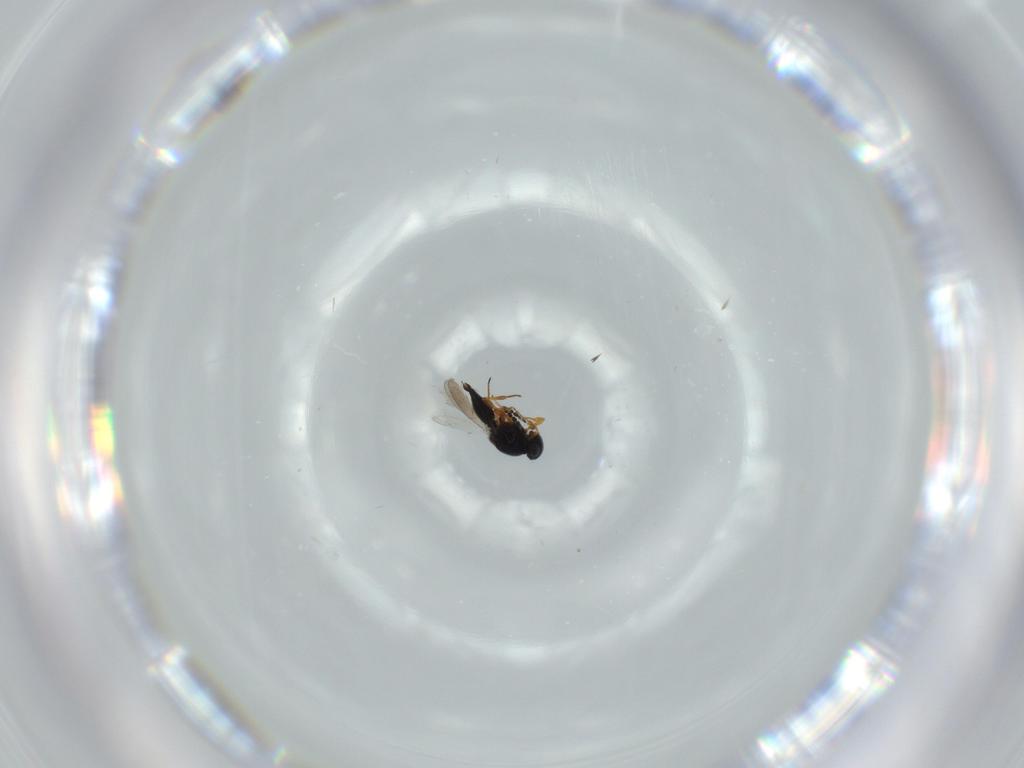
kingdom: Animalia
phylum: Arthropoda
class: Insecta
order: Hymenoptera
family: Platygastridae
